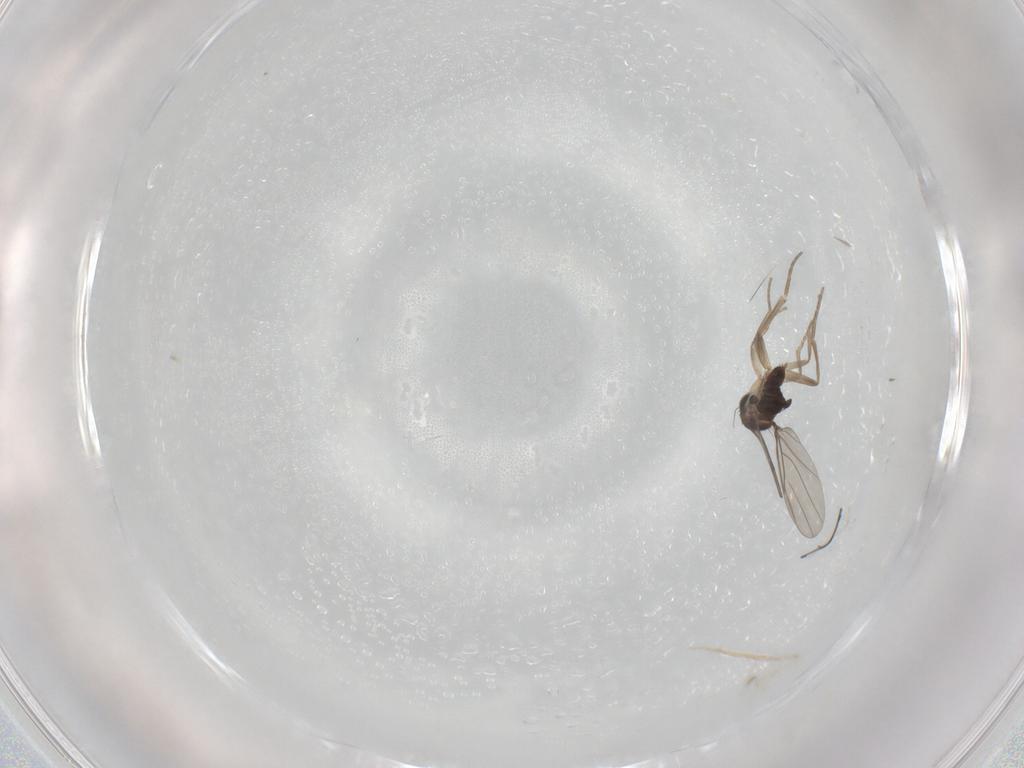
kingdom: Animalia
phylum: Arthropoda
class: Insecta
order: Diptera
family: Phoridae
